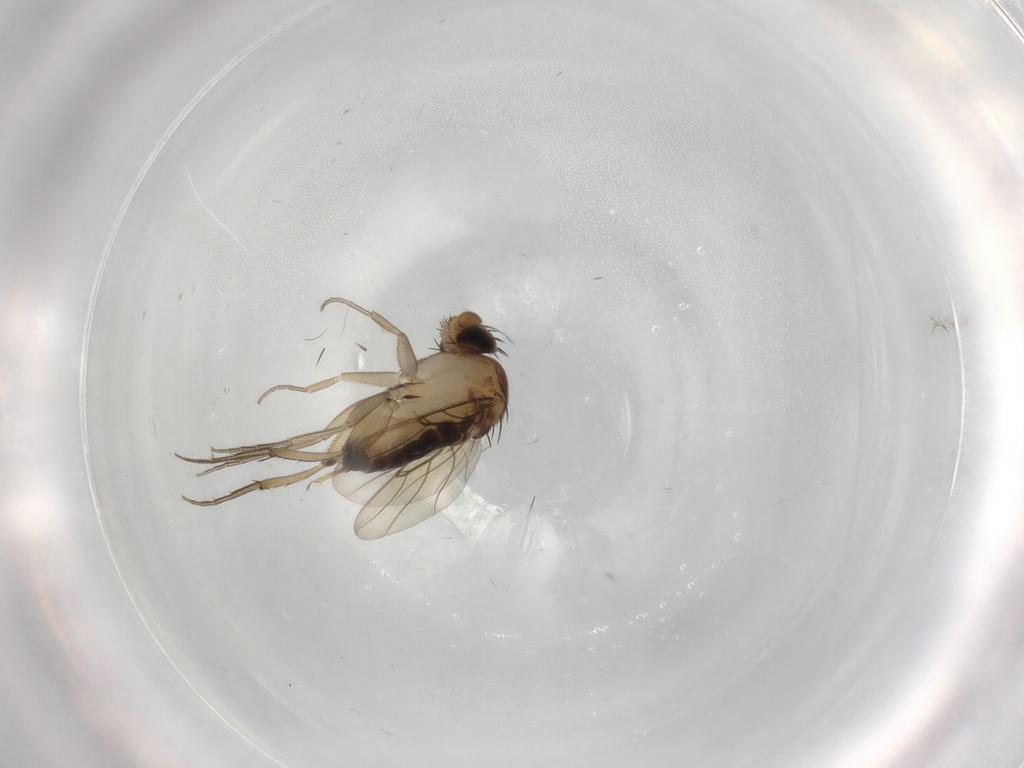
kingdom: Animalia
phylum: Arthropoda
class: Insecta
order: Diptera
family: Phoridae
